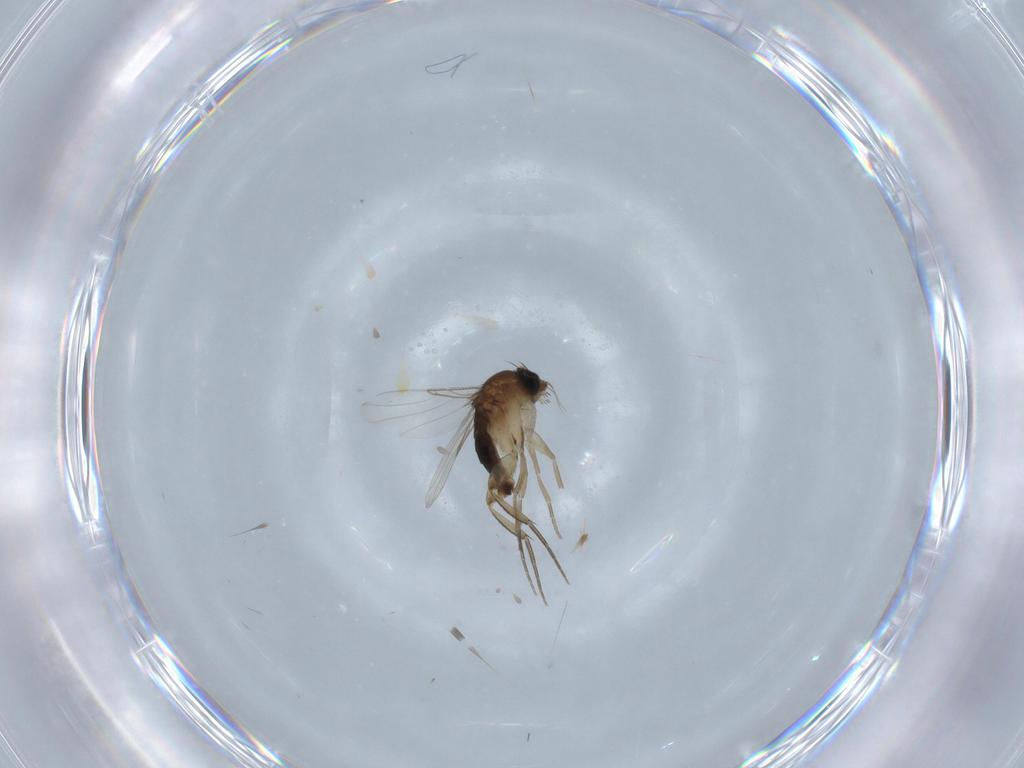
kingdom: Animalia
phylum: Arthropoda
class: Insecta
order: Diptera
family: Phoridae
